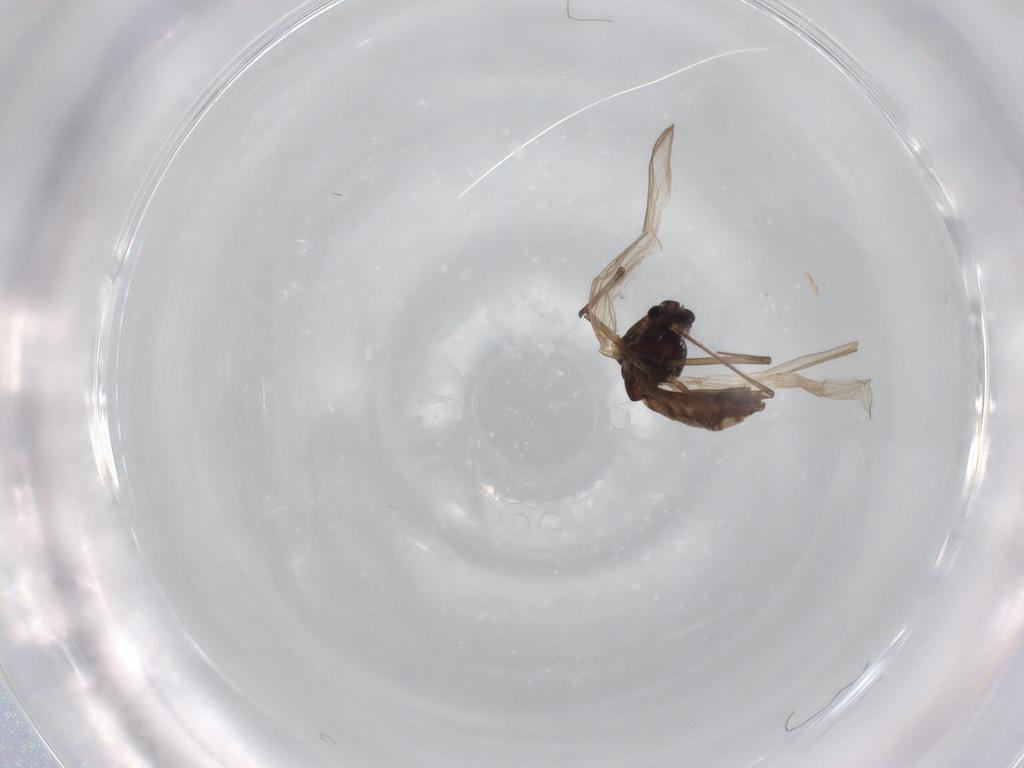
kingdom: Animalia
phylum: Arthropoda
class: Insecta
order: Diptera
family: Chironomidae
